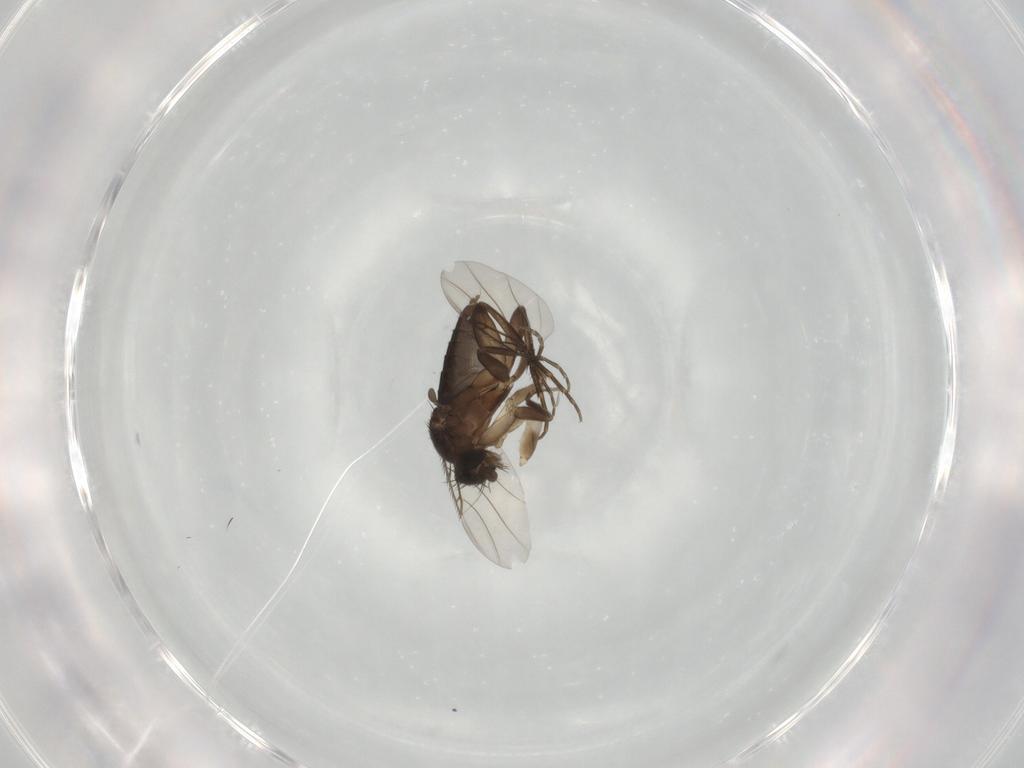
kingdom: Animalia
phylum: Arthropoda
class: Insecta
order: Diptera
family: Phoridae
